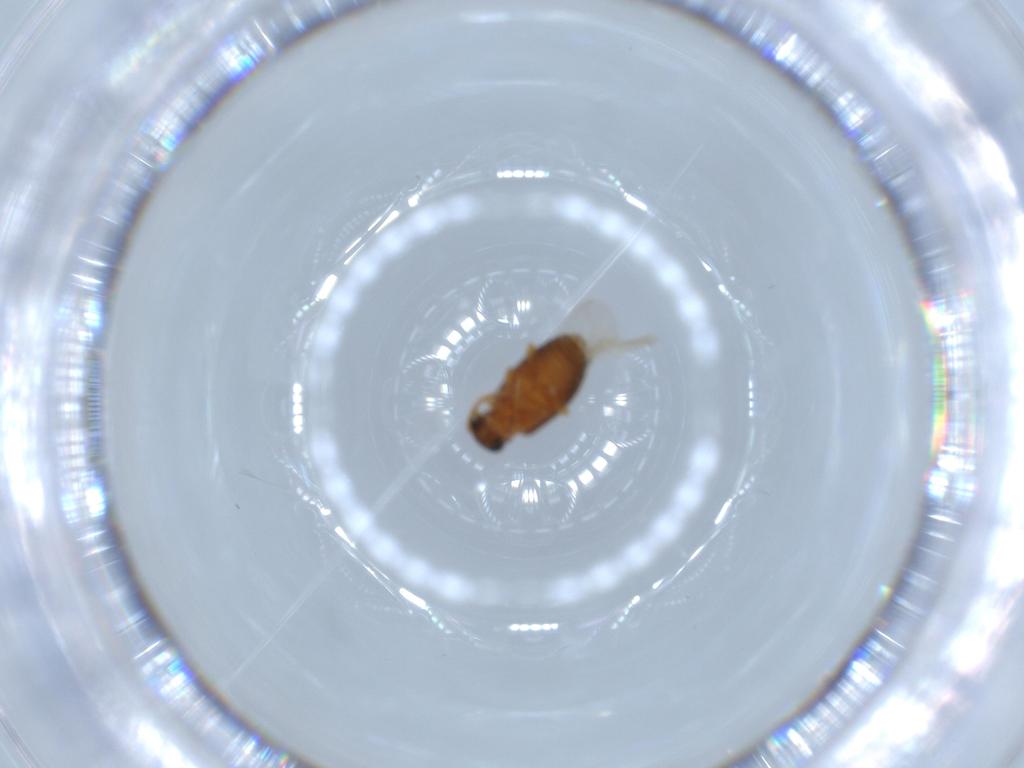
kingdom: Animalia
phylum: Arthropoda
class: Insecta
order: Coleoptera
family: Aderidae
